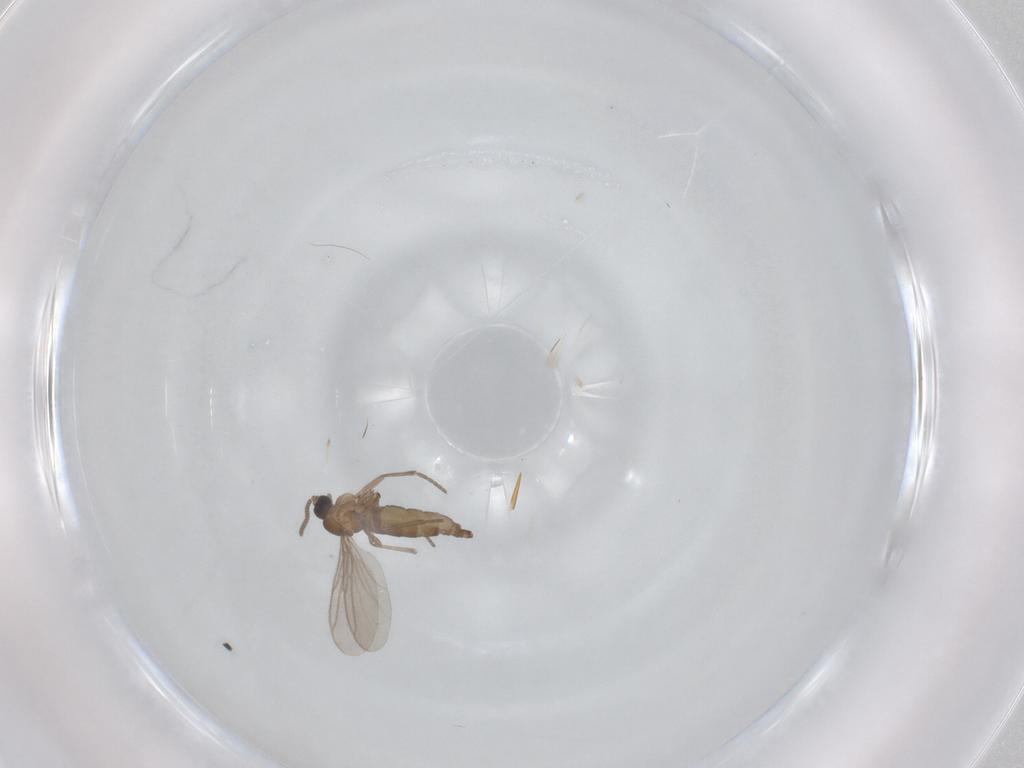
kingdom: Animalia
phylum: Arthropoda
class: Insecta
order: Diptera
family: Sciaridae
